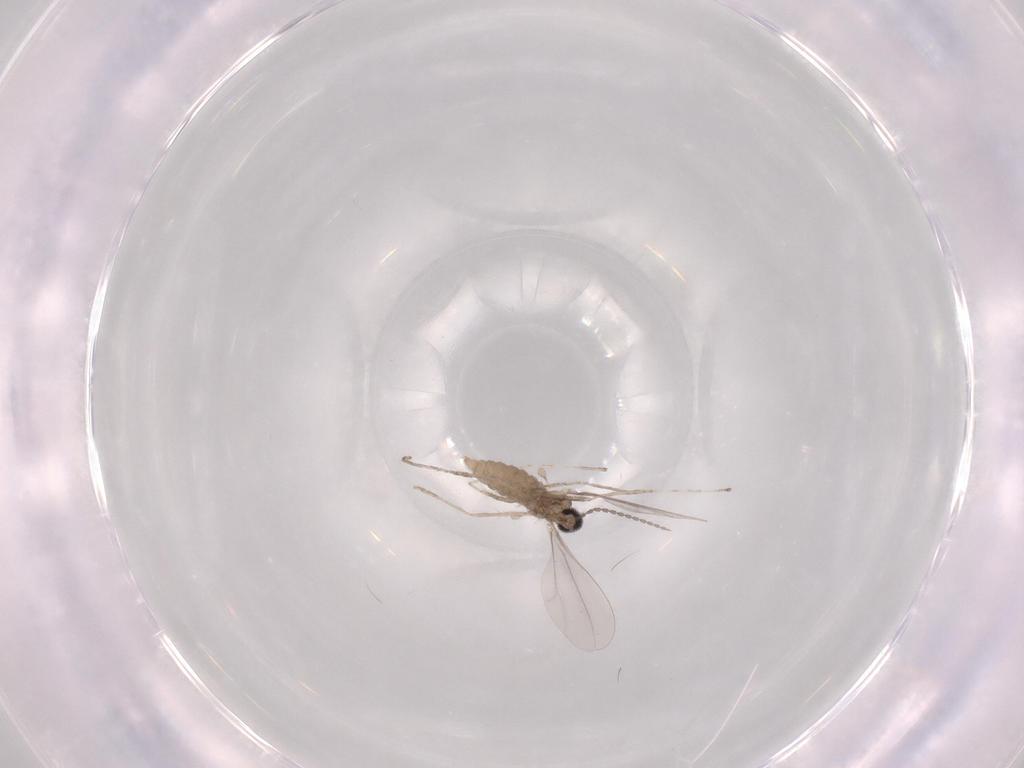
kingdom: Animalia
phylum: Arthropoda
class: Insecta
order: Diptera
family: Cecidomyiidae
